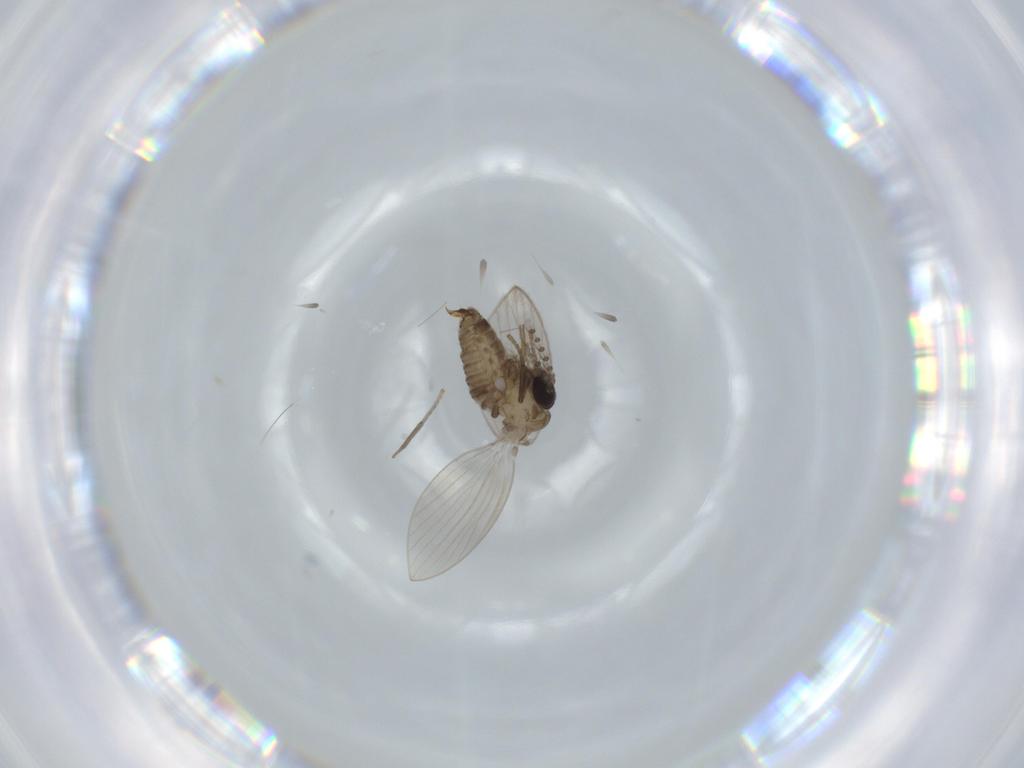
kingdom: Animalia
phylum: Arthropoda
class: Insecta
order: Diptera
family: Psychodidae
